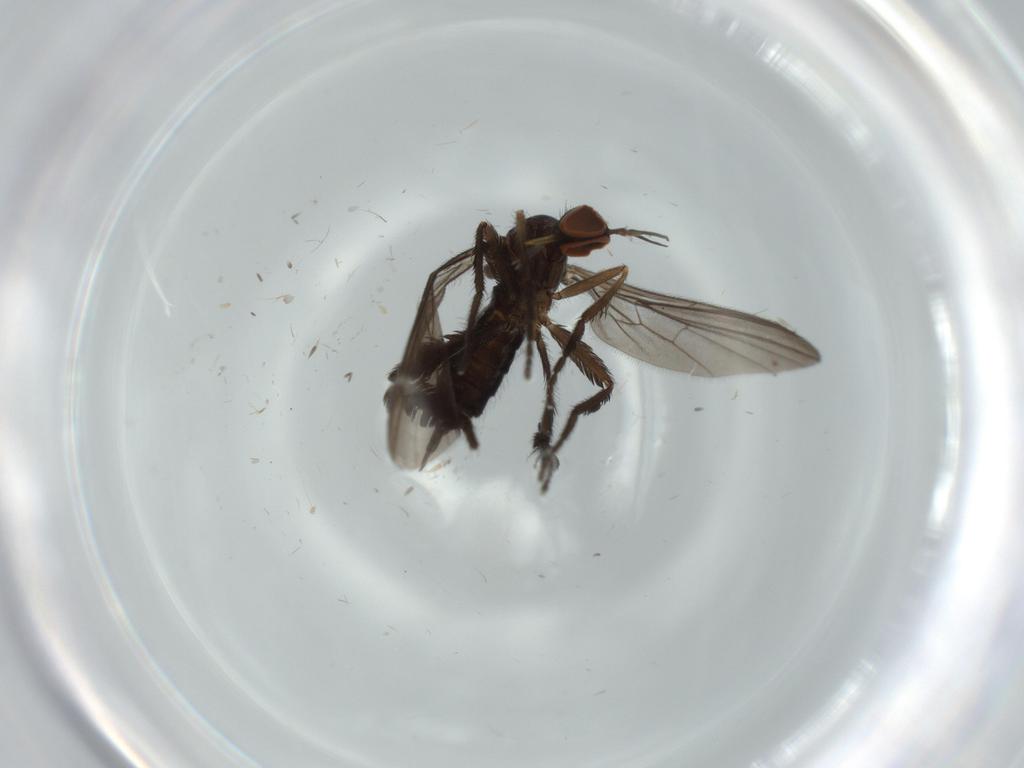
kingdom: Animalia
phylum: Arthropoda
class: Insecta
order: Diptera
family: Empididae
